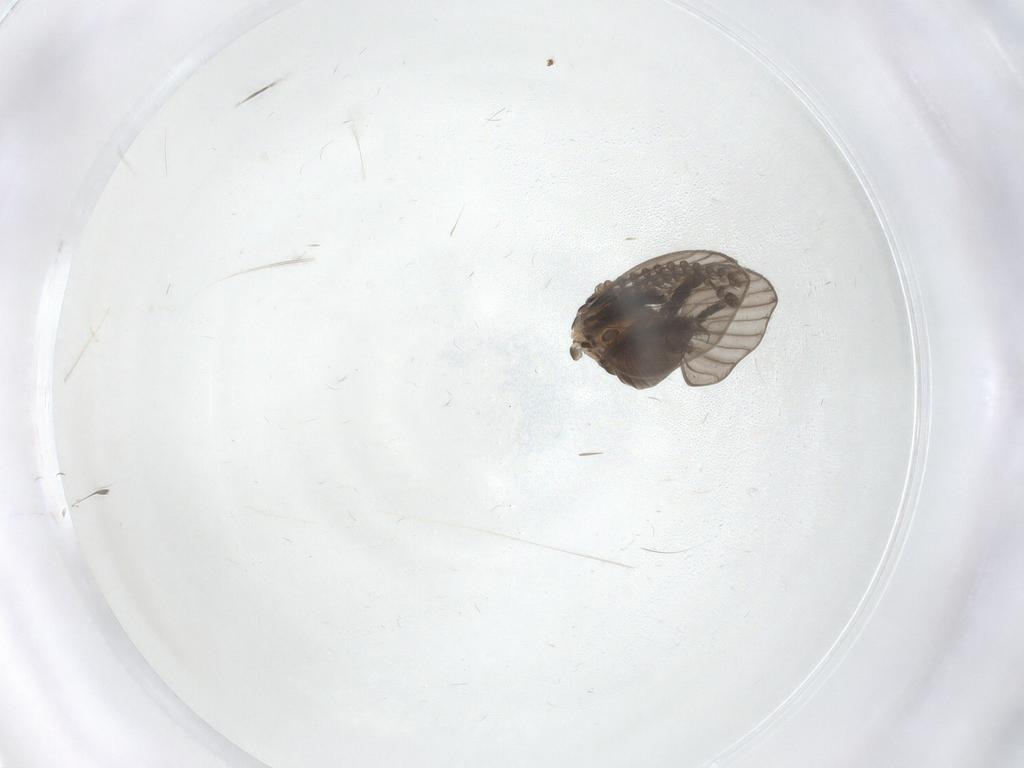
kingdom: Animalia
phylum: Arthropoda
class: Insecta
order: Diptera
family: Psychodidae
